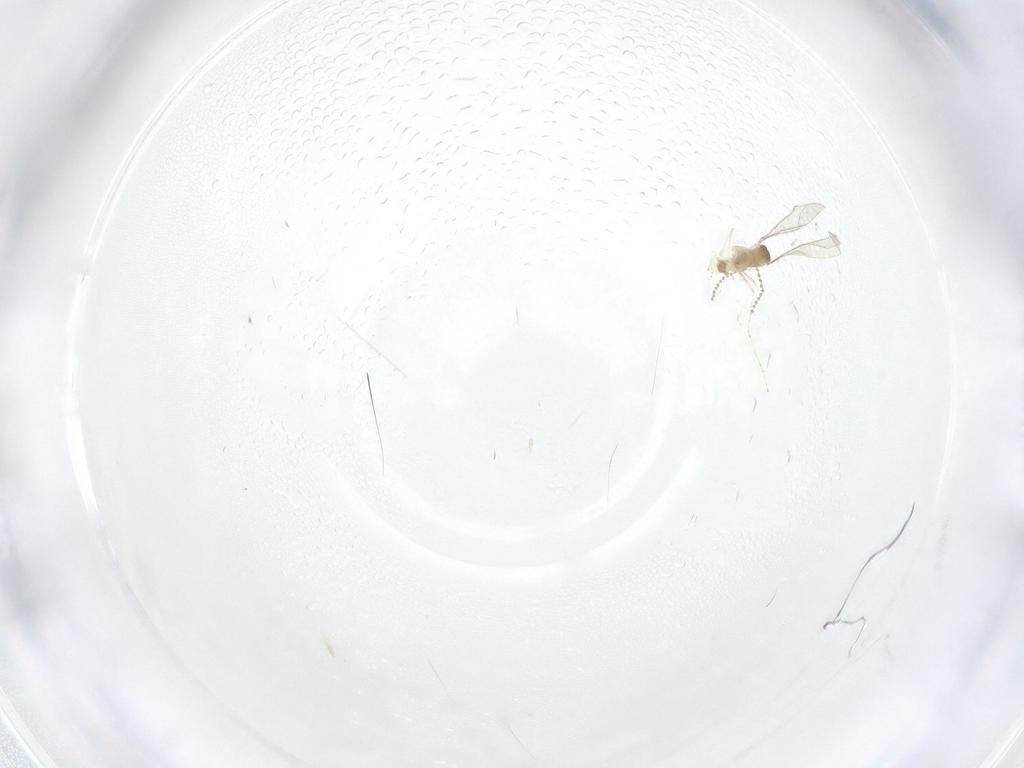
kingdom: Animalia
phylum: Arthropoda
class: Insecta
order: Diptera
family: Cecidomyiidae
